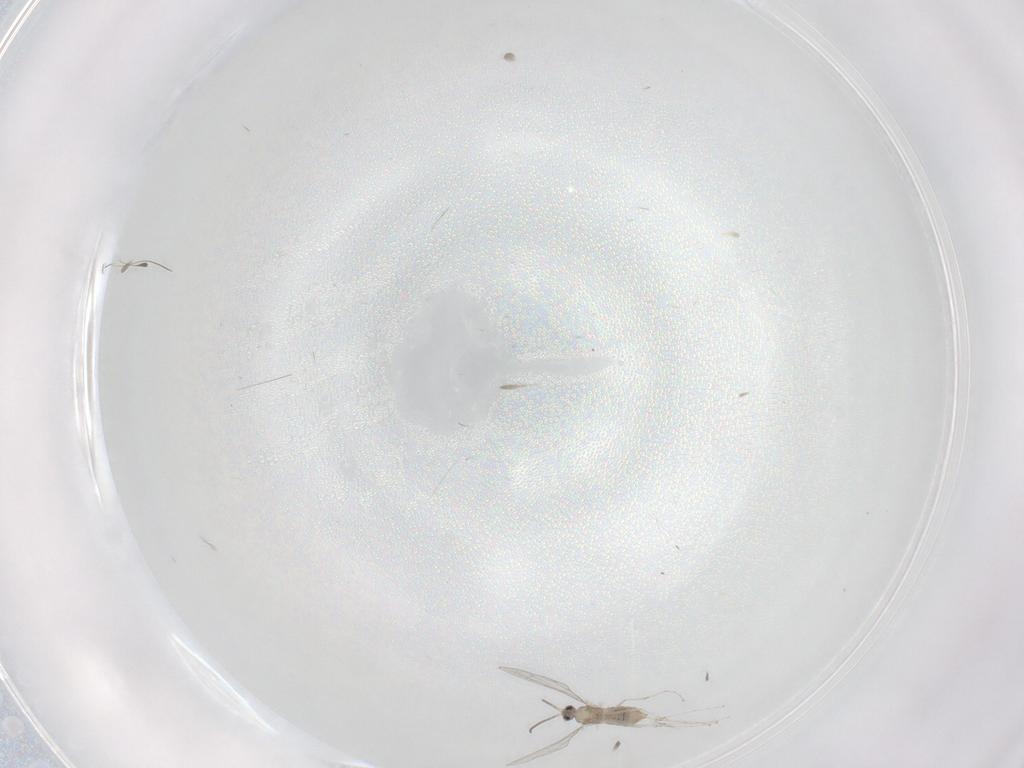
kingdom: Animalia
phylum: Arthropoda
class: Insecta
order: Diptera
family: Cecidomyiidae
